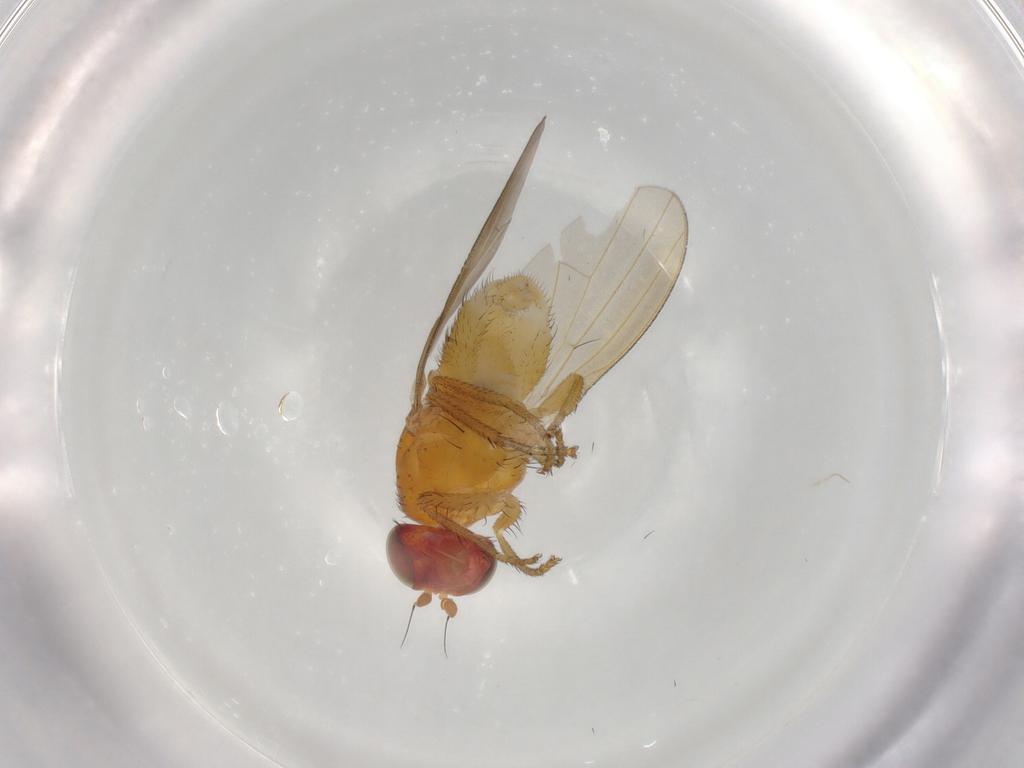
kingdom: Animalia
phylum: Arthropoda
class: Insecta
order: Diptera
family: Lauxaniidae
